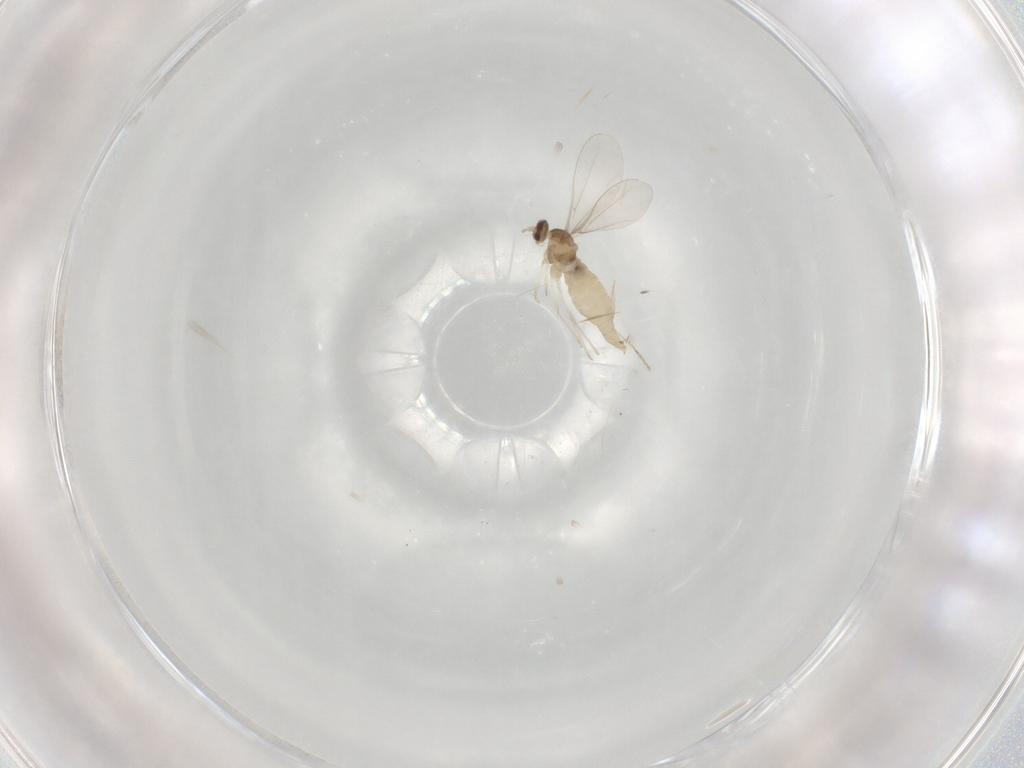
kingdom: Animalia
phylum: Arthropoda
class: Insecta
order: Diptera
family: Cecidomyiidae
